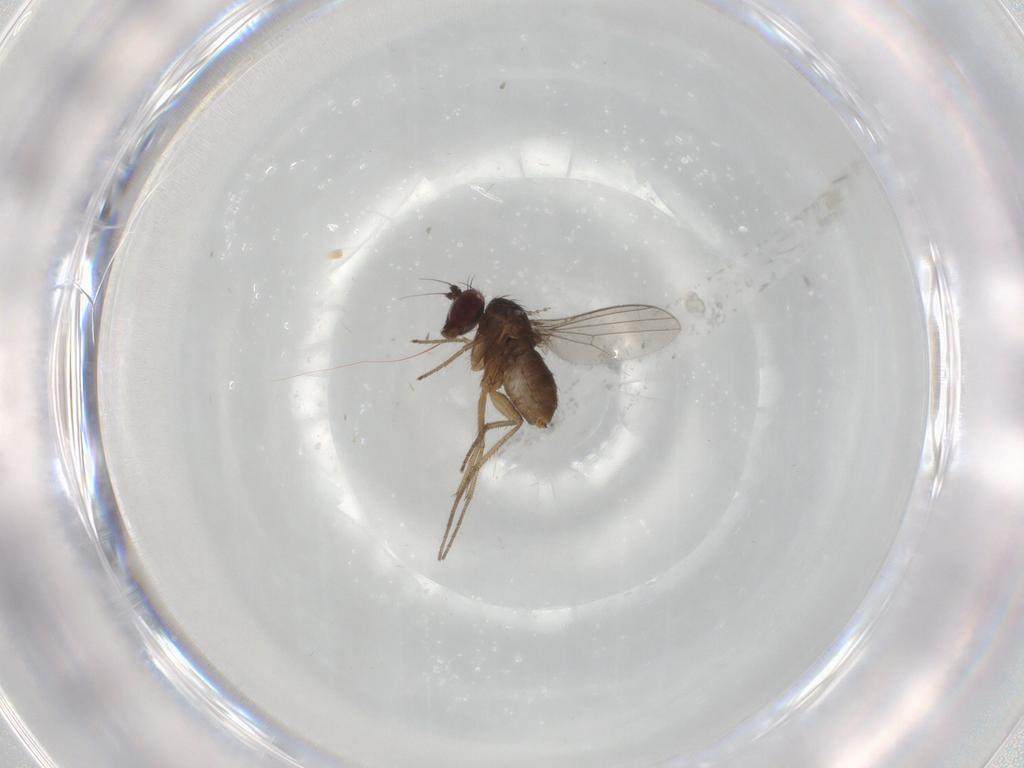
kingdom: Animalia
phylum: Arthropoda
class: Insecta
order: Diptera
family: Dolichopodidae
